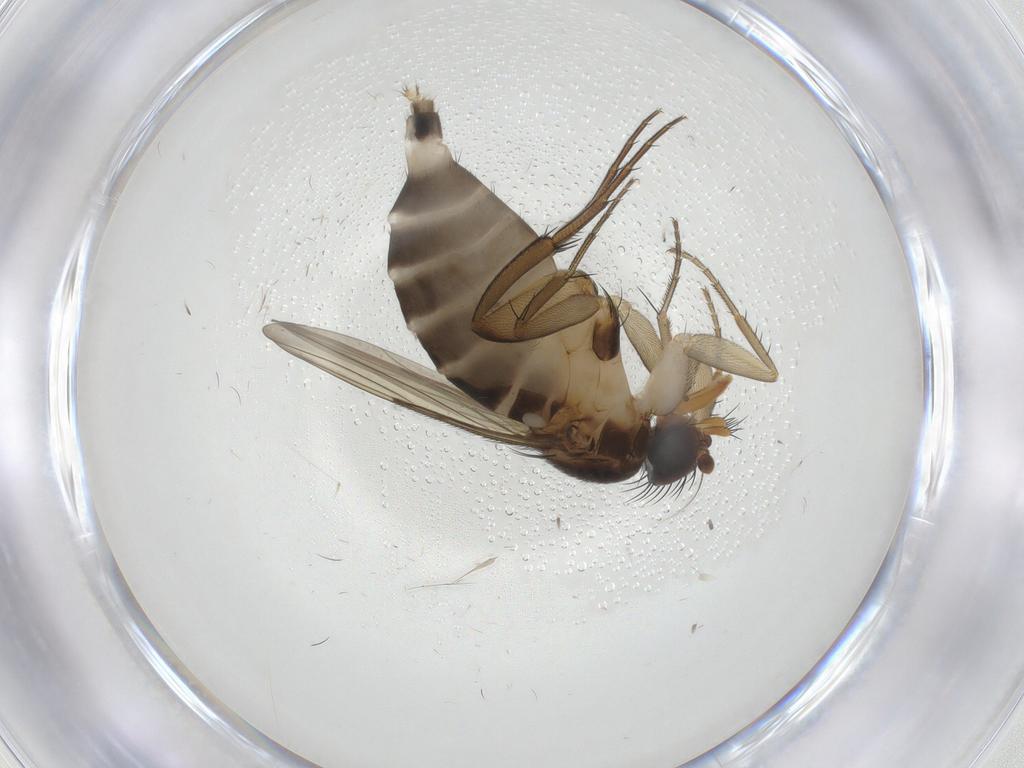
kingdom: Animalia
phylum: Arthropoda
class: Insecta
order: Diptera
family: Phoridae
